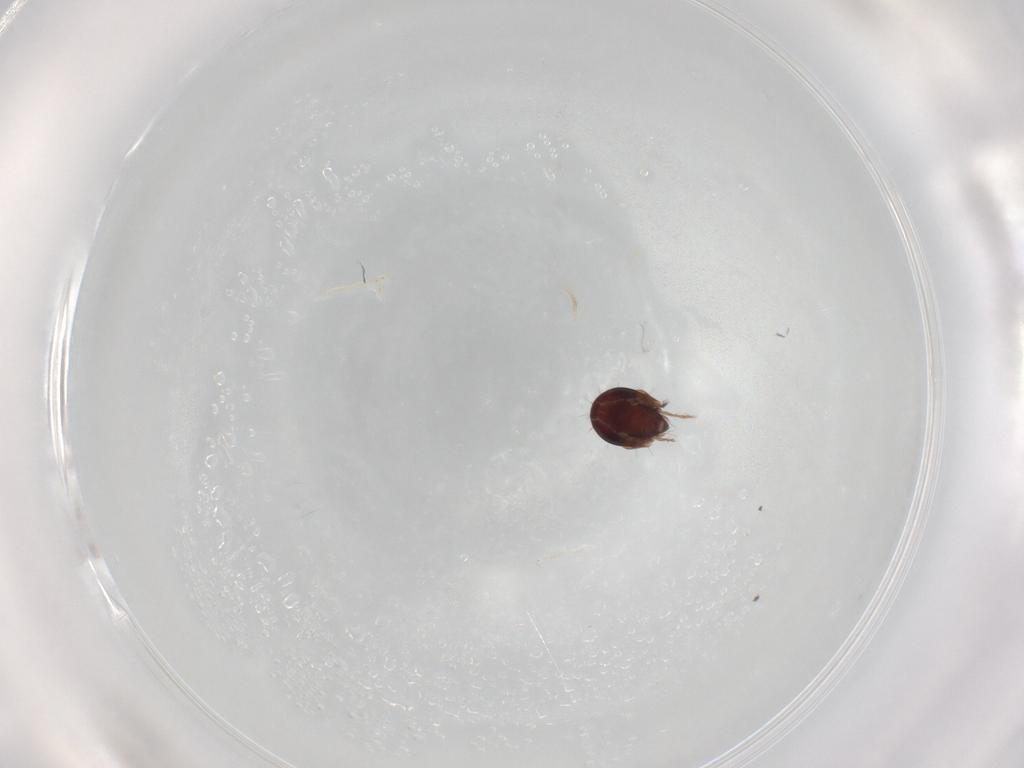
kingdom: Animalia
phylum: Arthropoda
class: Arachnida
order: Sarcoptiformes
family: Humerobatidae
